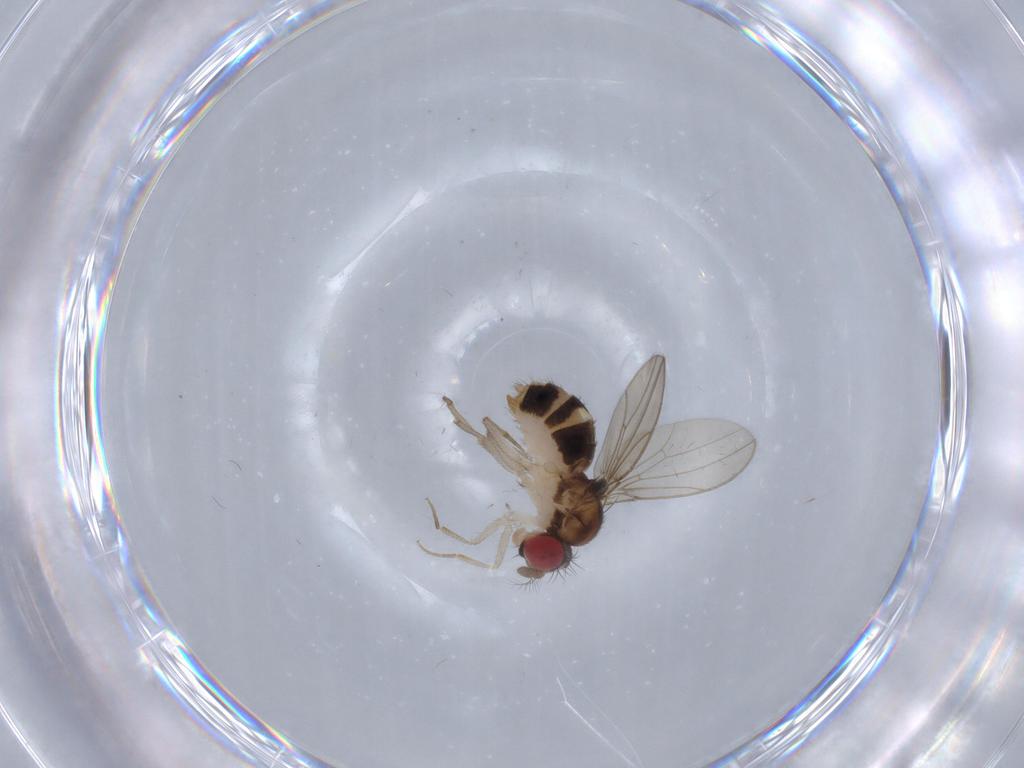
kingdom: Animalia
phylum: Arthropoda
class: Insecta
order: Diptera
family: Drosophilidae
